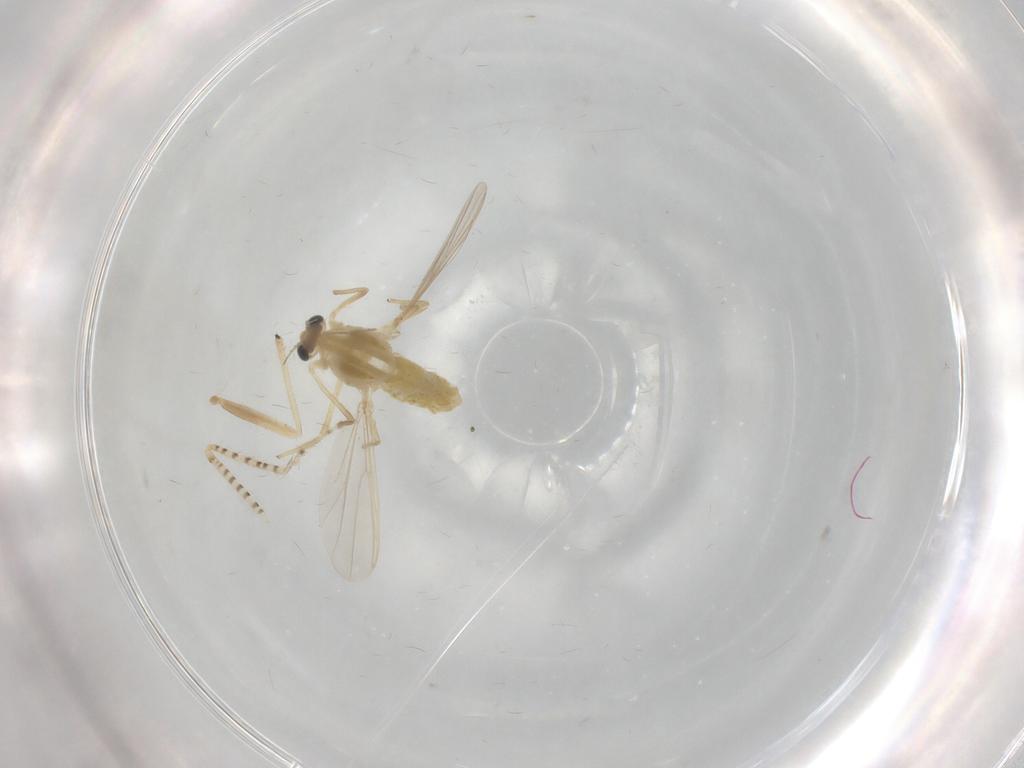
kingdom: Animalia
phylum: Arthropoda
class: Insecta
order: Diptera
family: Chironomidae
